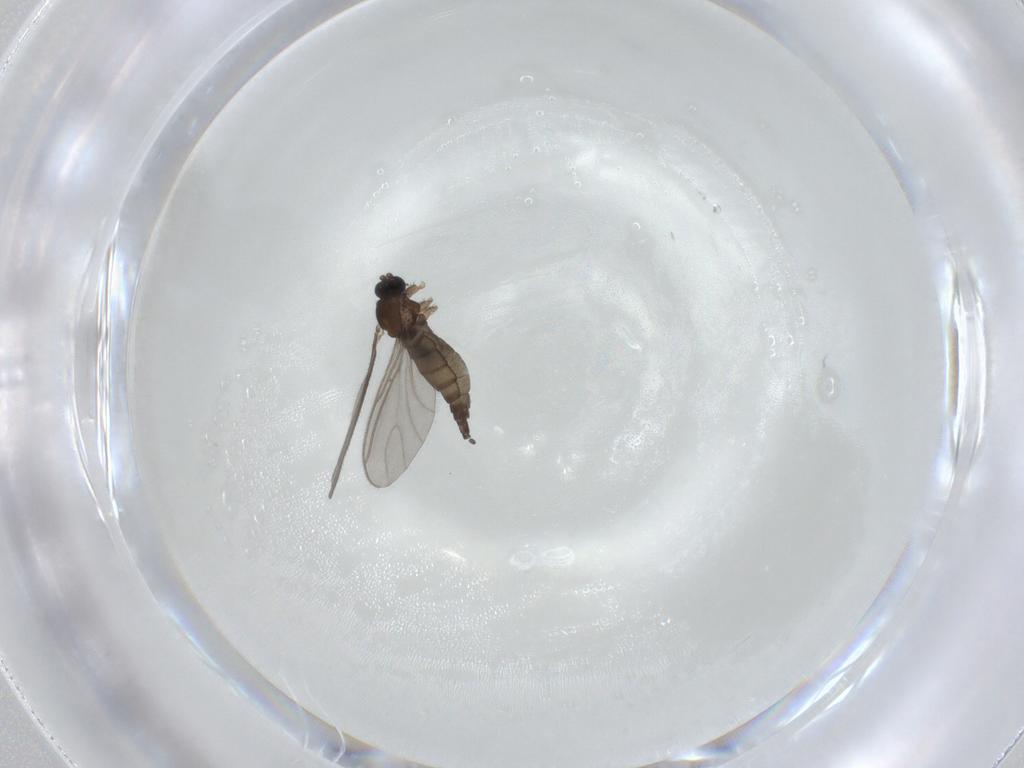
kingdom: Animalia
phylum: Arthropoda
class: Insecta
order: Diptera
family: Sciaridae
